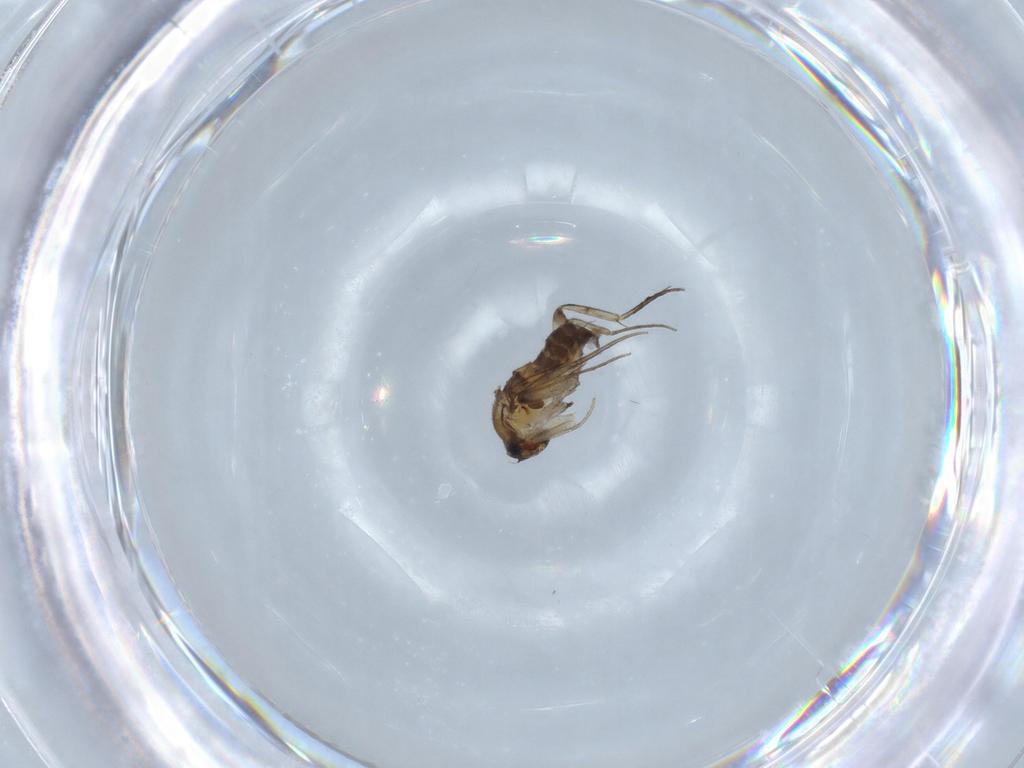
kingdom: Animalia
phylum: Arthropoda
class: Insecta
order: Diptera
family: Phoridae
